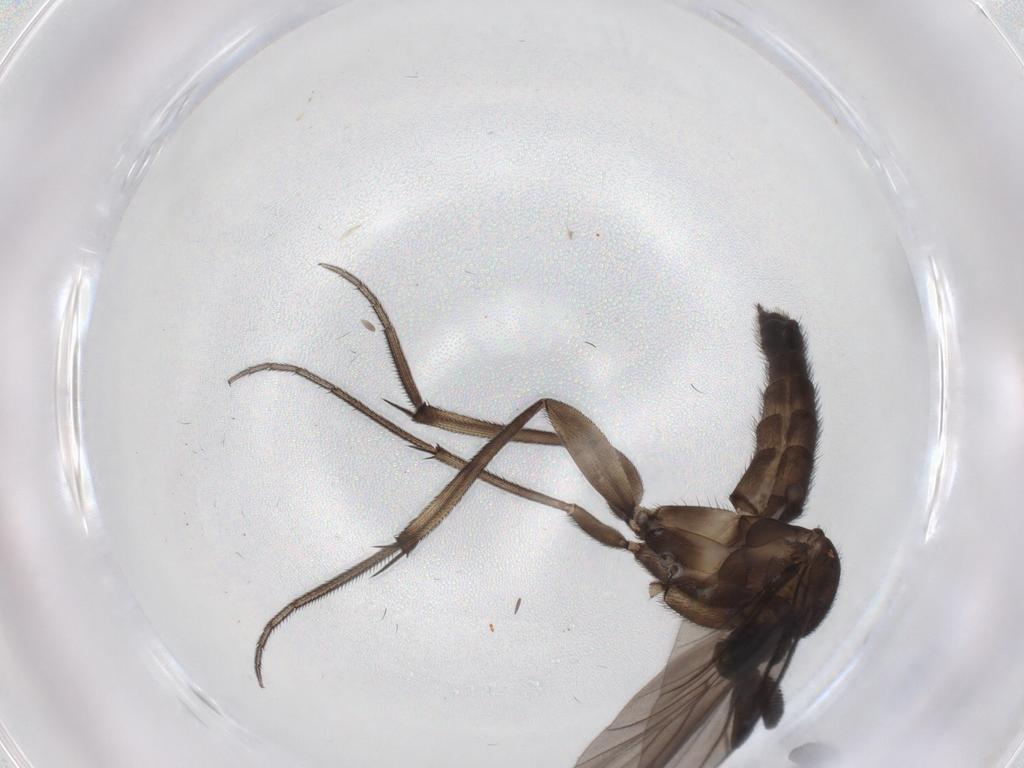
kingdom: Animalia
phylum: Arthropoda
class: Insecta
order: Diptera
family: Keroplatidae
